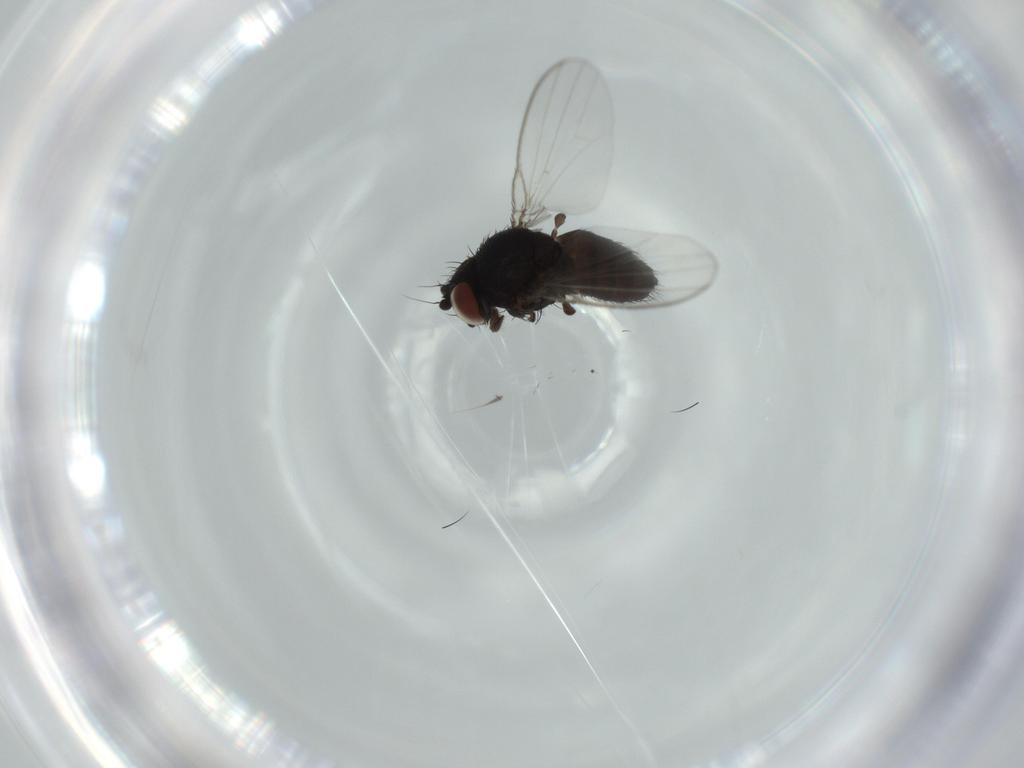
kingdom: Animalia
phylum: Arthropoda
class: Insecta
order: Diptera
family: Milichiidae
